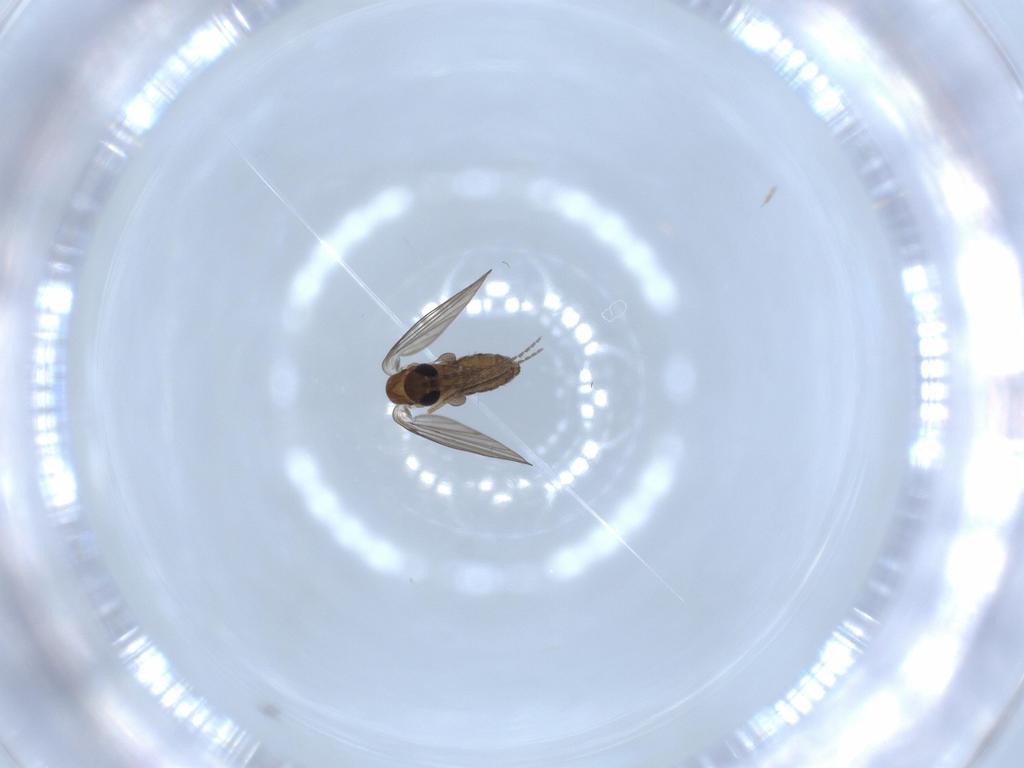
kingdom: Animalia
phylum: Arthropoda
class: Insecta
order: Diptera
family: Psychodidae
